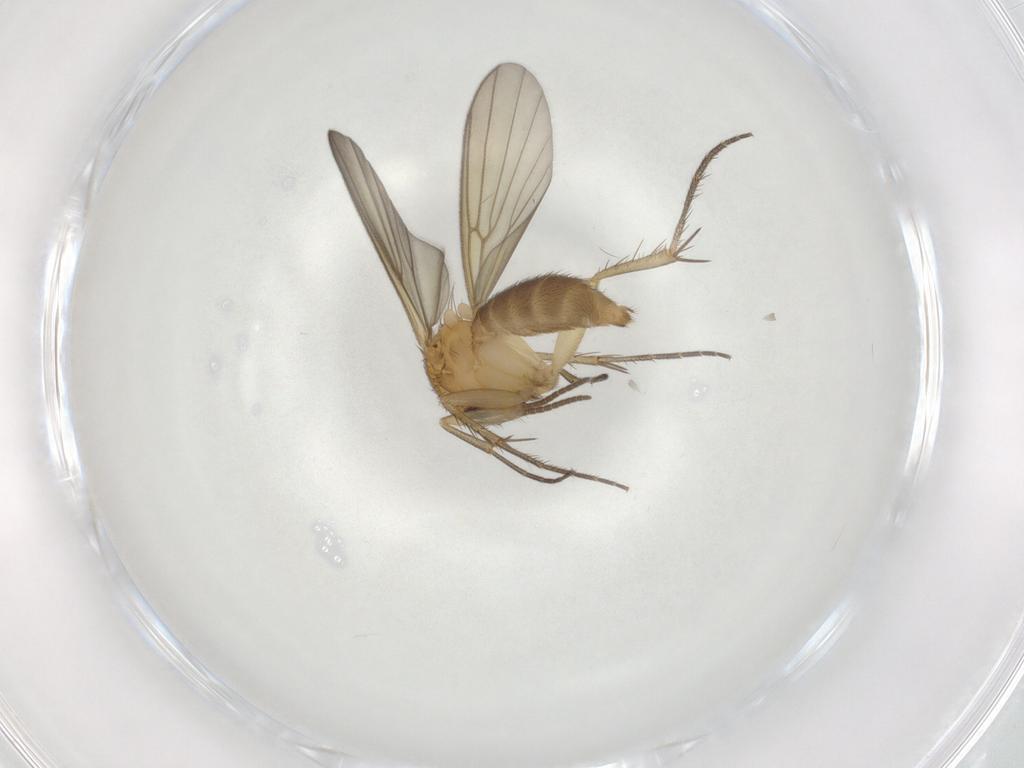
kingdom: Animalia
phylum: Arthropoda
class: Insecta
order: Diptera
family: Mycetophilidae
